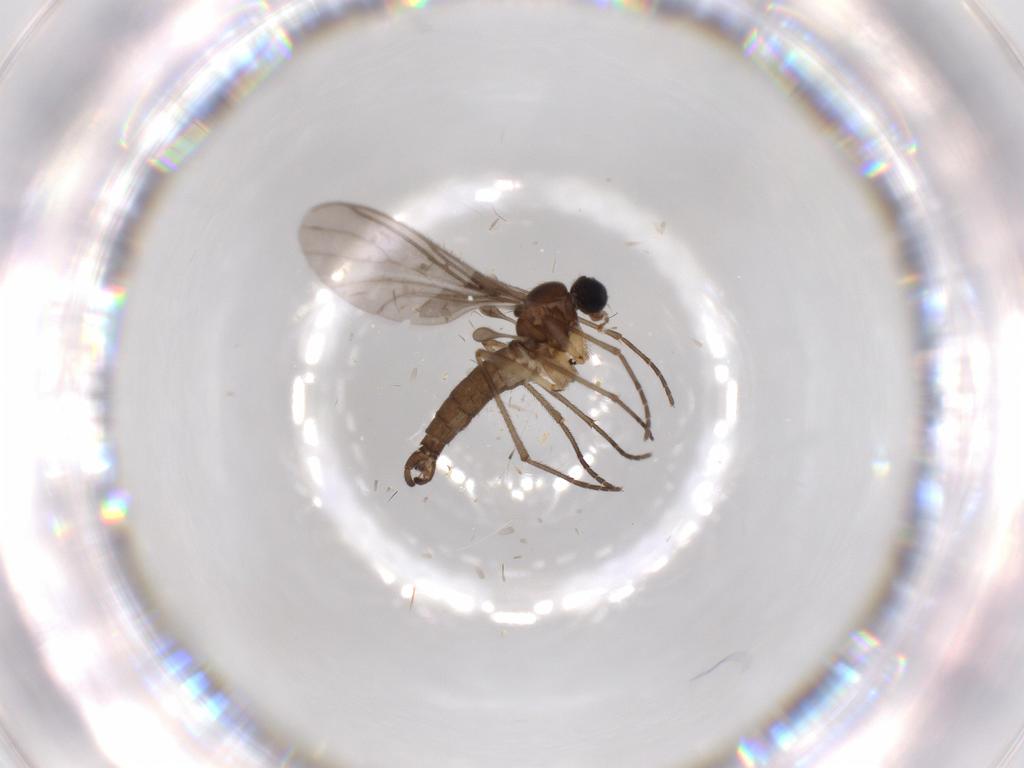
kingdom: Animalia
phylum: Arthropoda
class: Insecta
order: Diptera
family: Sciaridae
